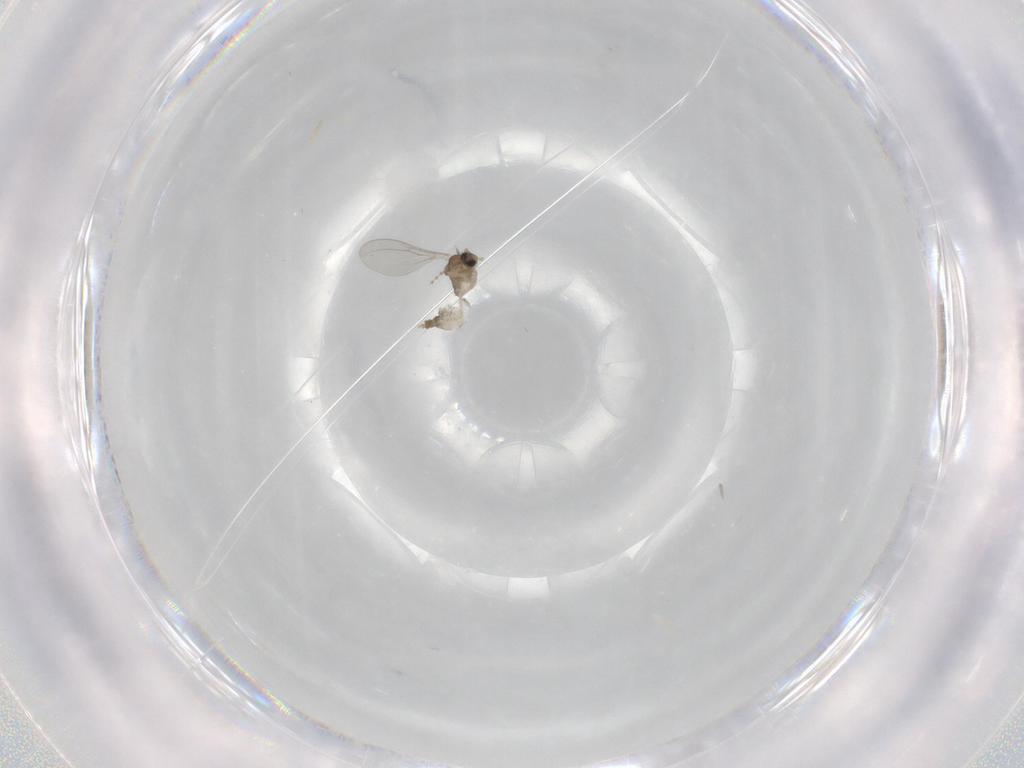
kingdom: Animalia
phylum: Arthropoda
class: Insecta
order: Diptera
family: Cecidomyiidae
